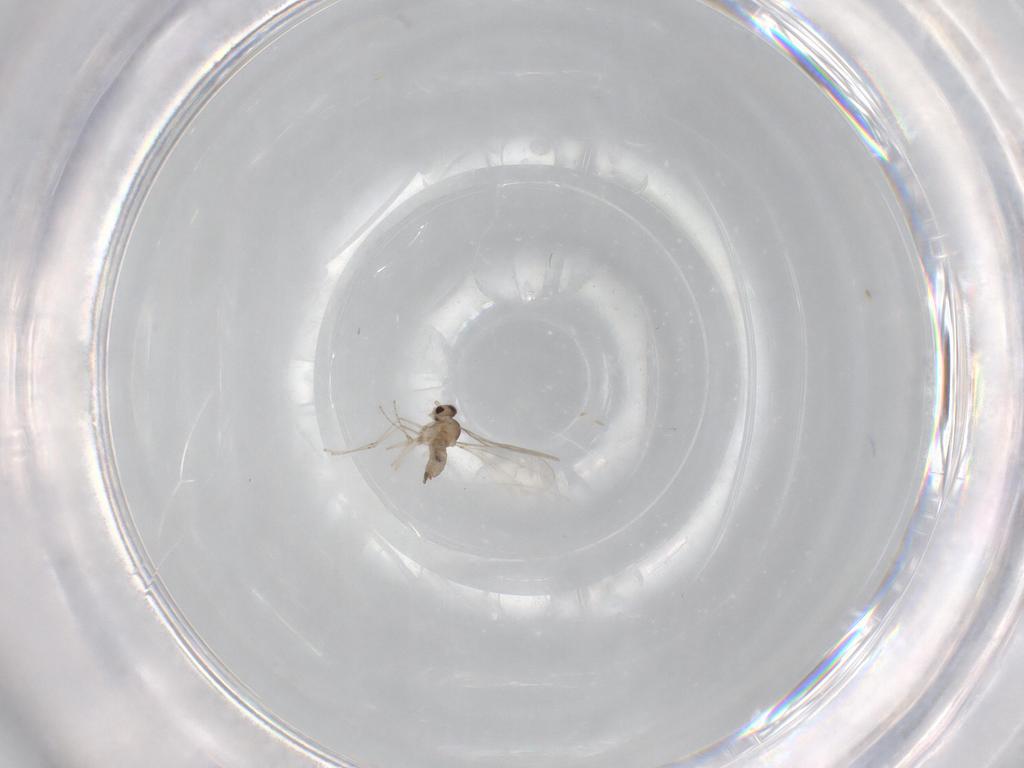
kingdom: Animalia
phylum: Arthropoda
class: Insecta
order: Diptera
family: Cecidomyiidae
